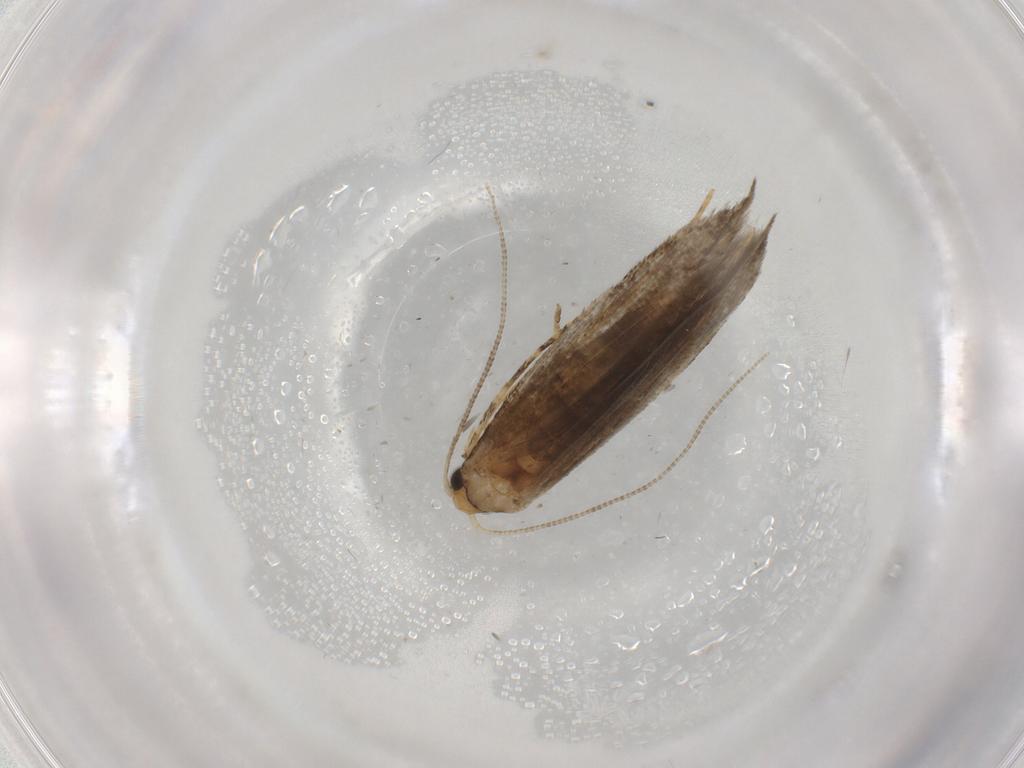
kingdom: Animalia
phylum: Arthropoda
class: Insecta
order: Lepidoptera
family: Tineidae
